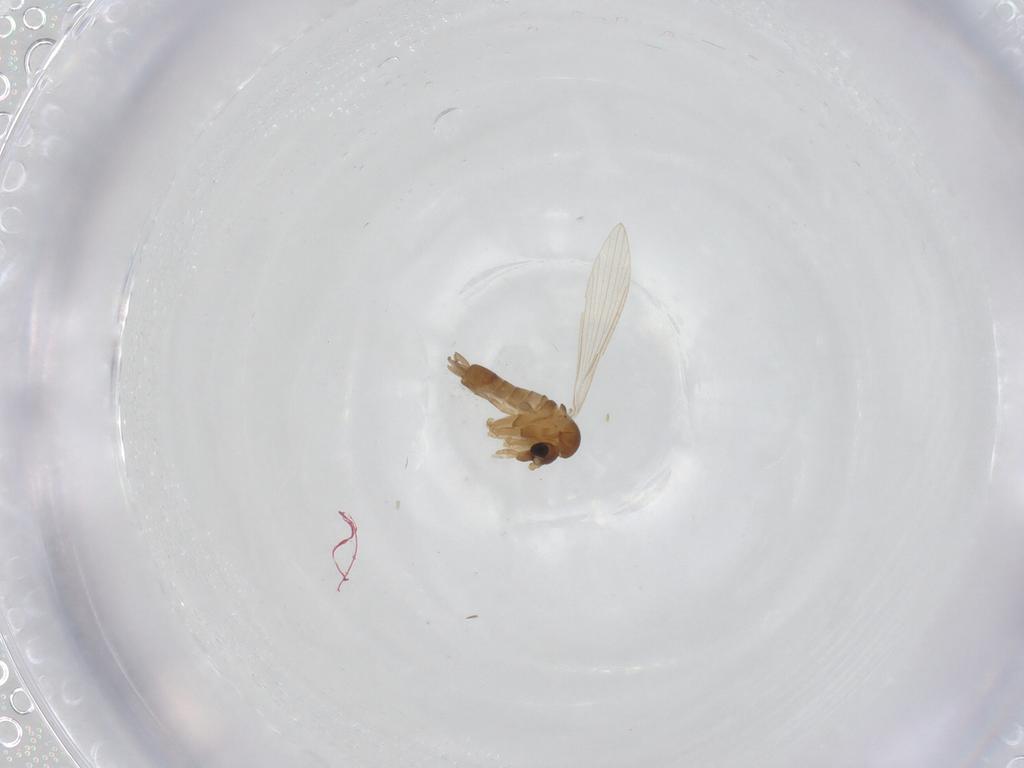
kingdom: Animalia
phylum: Arthropoda
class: Insecta
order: Diptera
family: Psychodidae
